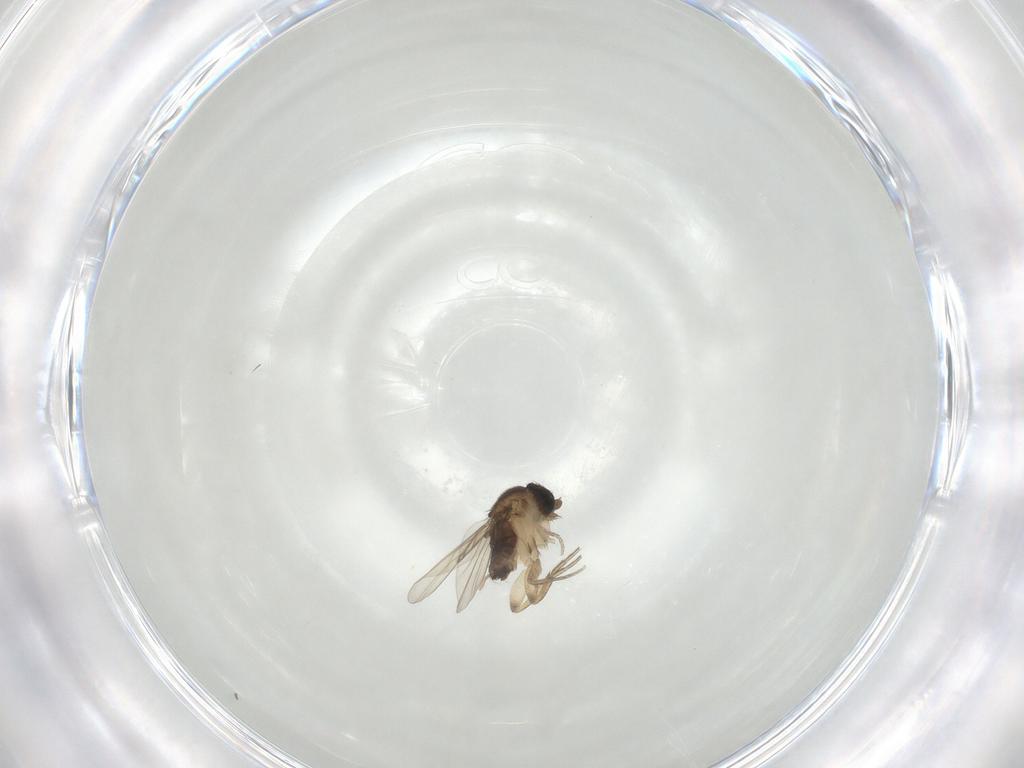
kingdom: Animalia
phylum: Arthropoda
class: Insecta
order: Diptera
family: Phoridae
